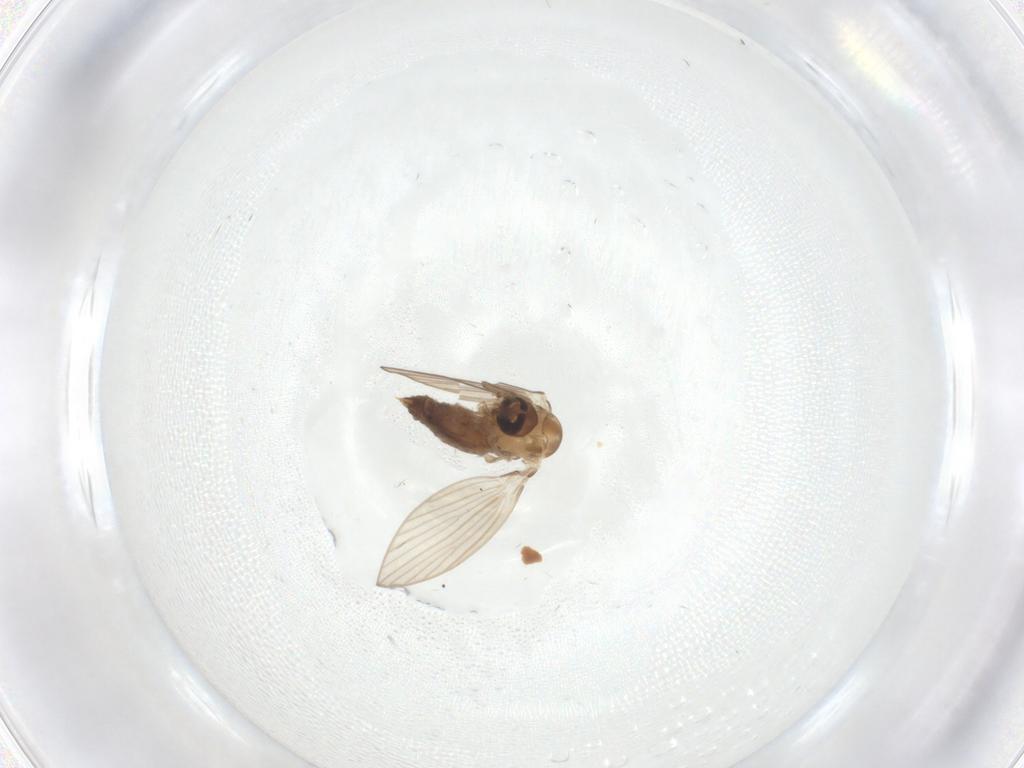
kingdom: Animalia
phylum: Arthropoda
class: Insecta
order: Diptera
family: Psychodidae
